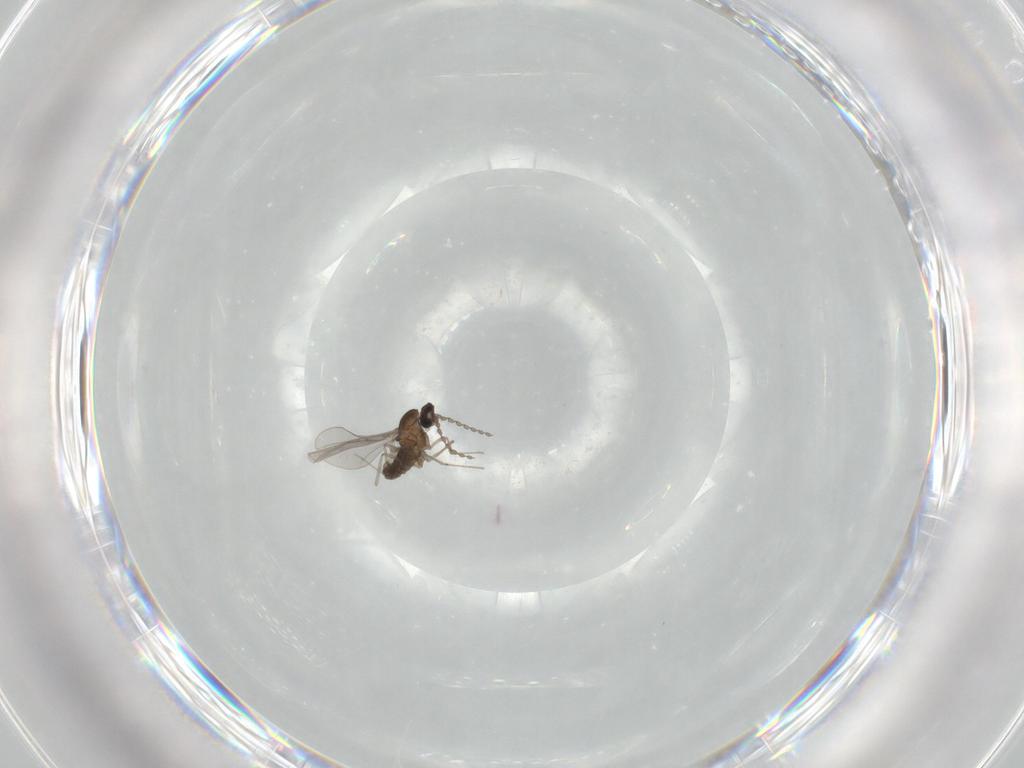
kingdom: Animalia
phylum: Arthropoda
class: Insecta
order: Diptera
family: Cecidomyiidae
